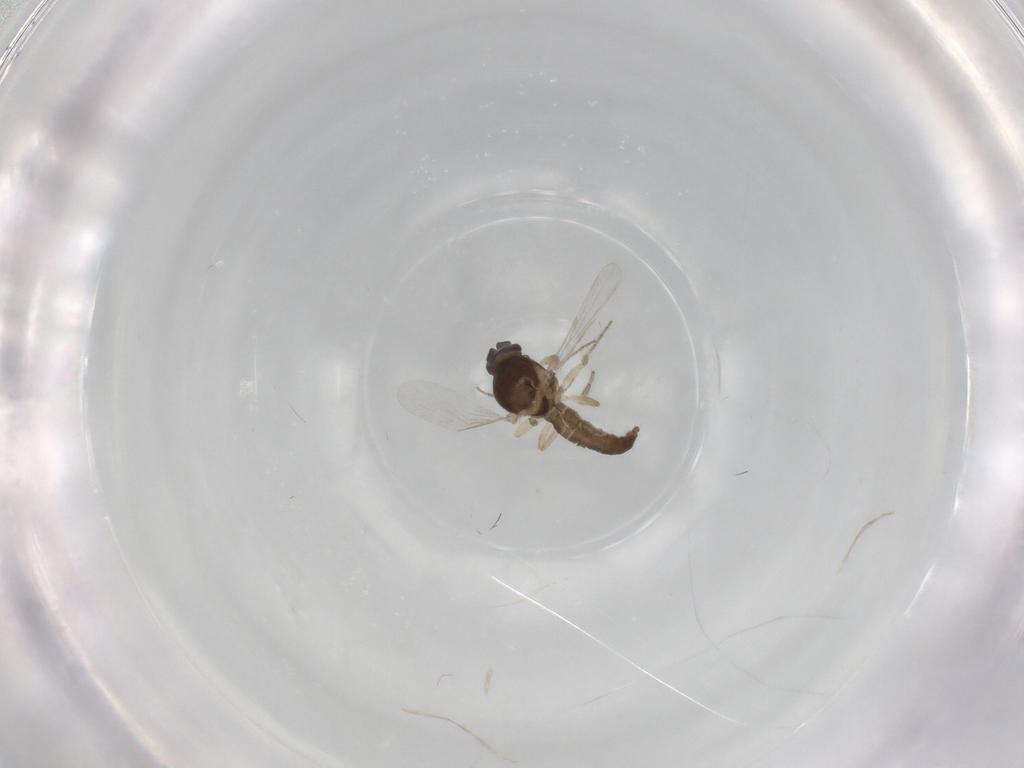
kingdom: Animalia
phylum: Arthropoda
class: Insecta
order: Diptera
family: Ceratopogonidae
